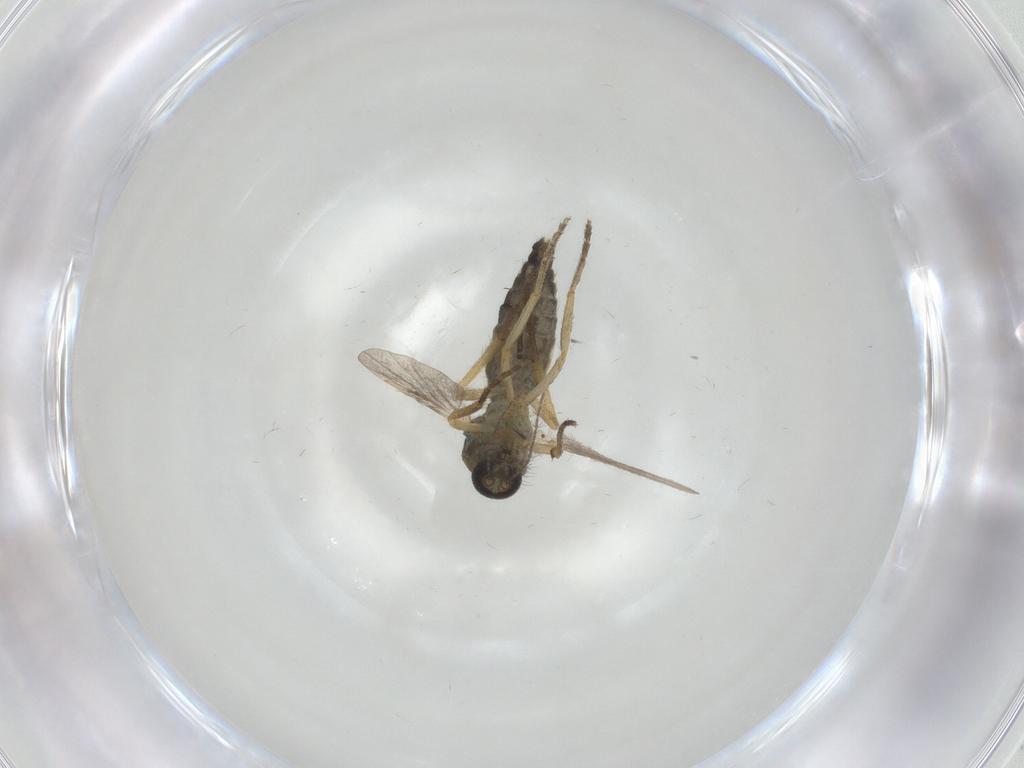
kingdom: Animalia
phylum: Arthropoda
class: Insecta
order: Diptera
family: Ceratopogonidae
